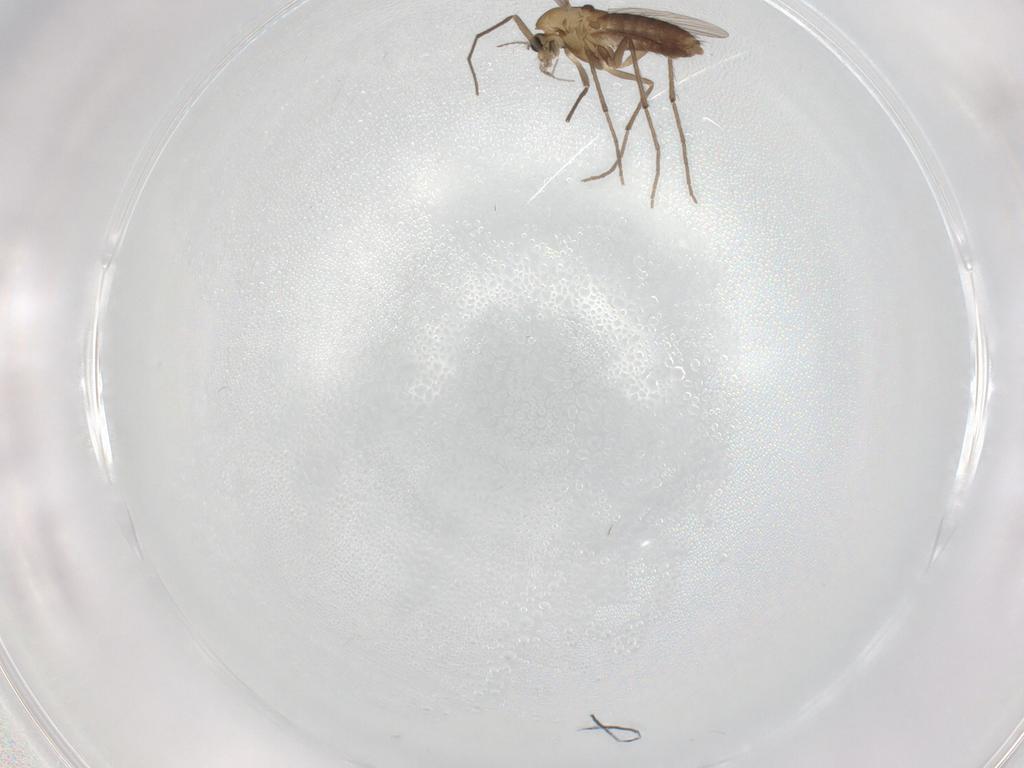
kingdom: Animalia
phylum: Arthropoda
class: Insecta
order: Diptera
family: Chironomidae
